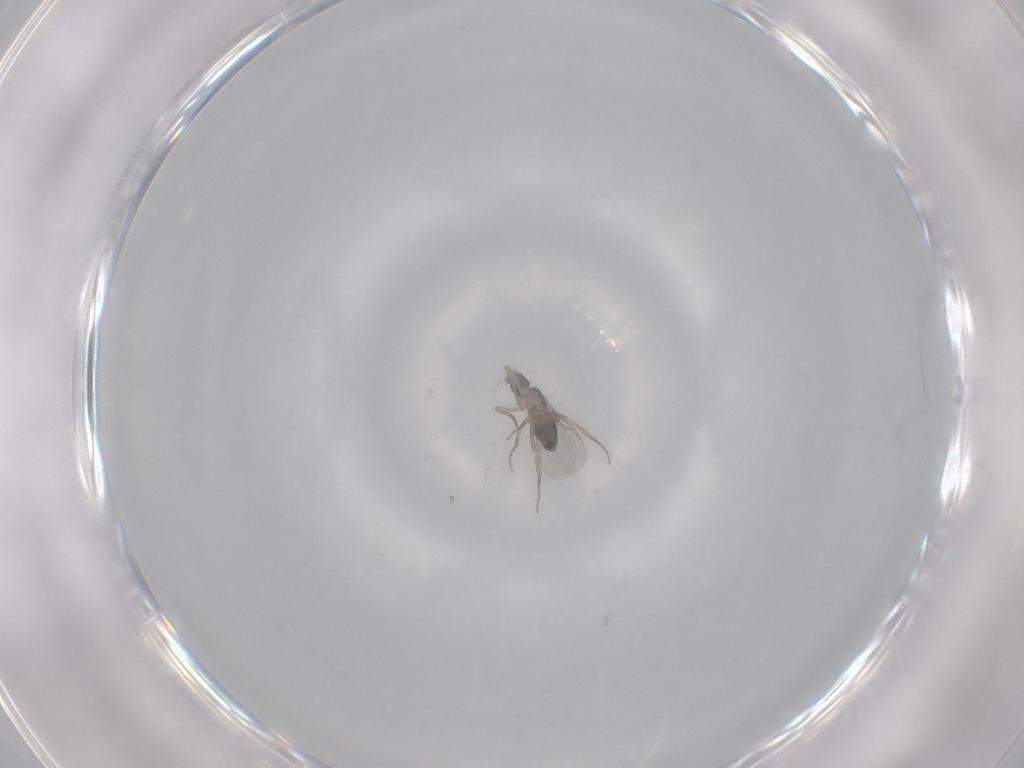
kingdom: Animalia
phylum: Arthropoda
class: Insecta
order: Diptera
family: Phoridae
